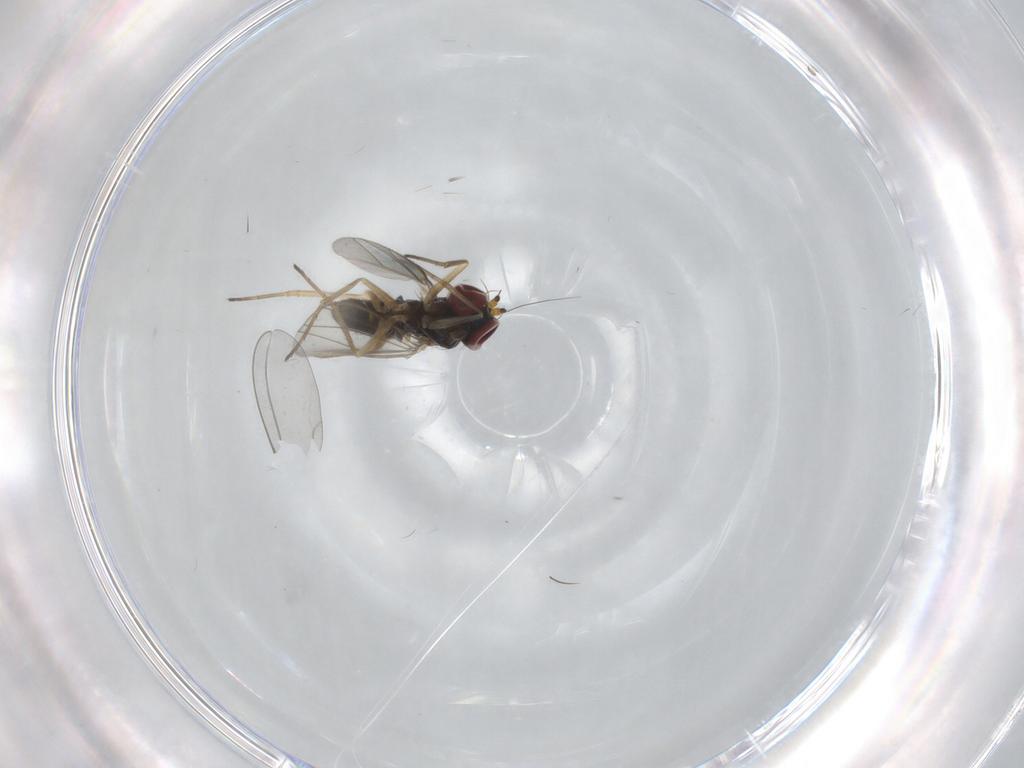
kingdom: Animalia
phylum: Arthropoda
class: Insecta
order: Diptera
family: Dolichopodidae
